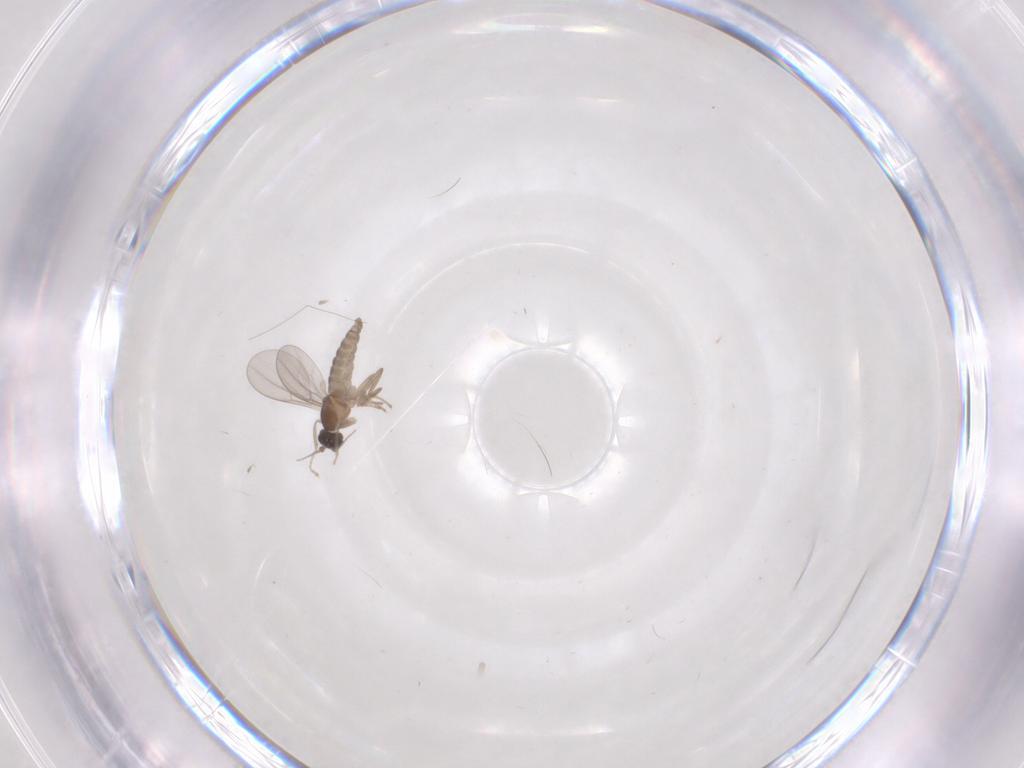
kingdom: Animalia
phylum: Arthropoda
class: Insecta
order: Diptera
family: Cecidomyiidae
